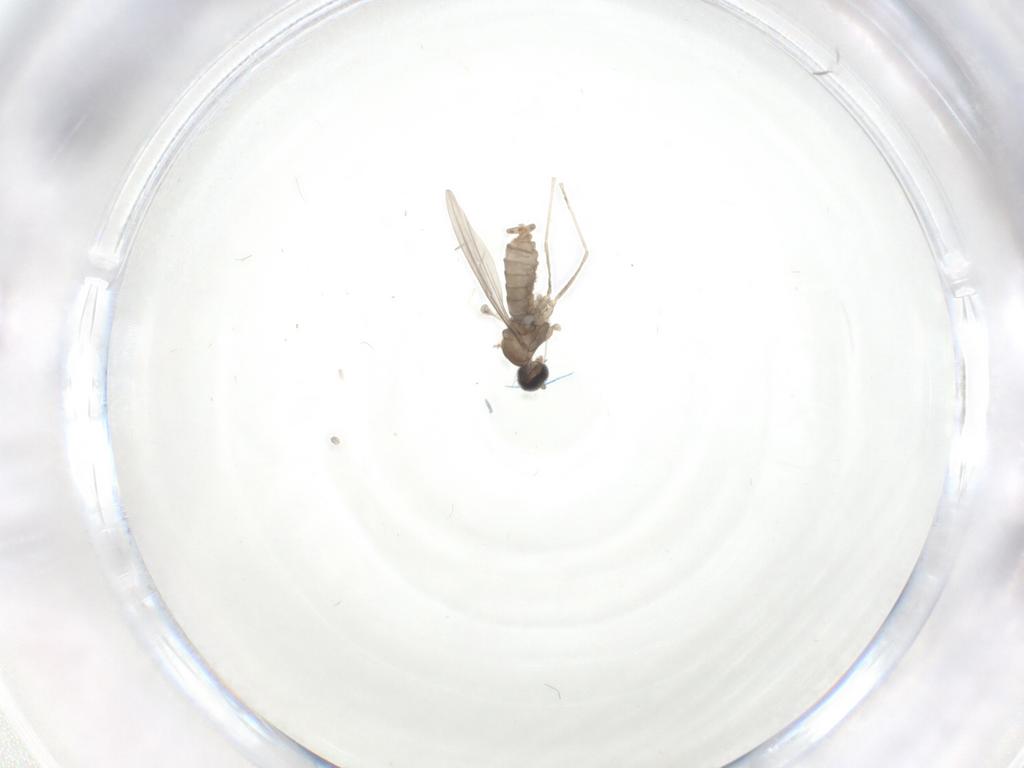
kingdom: Animalia
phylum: Arthropoda
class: Insecta
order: Diptera
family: Cecidomyiidae
